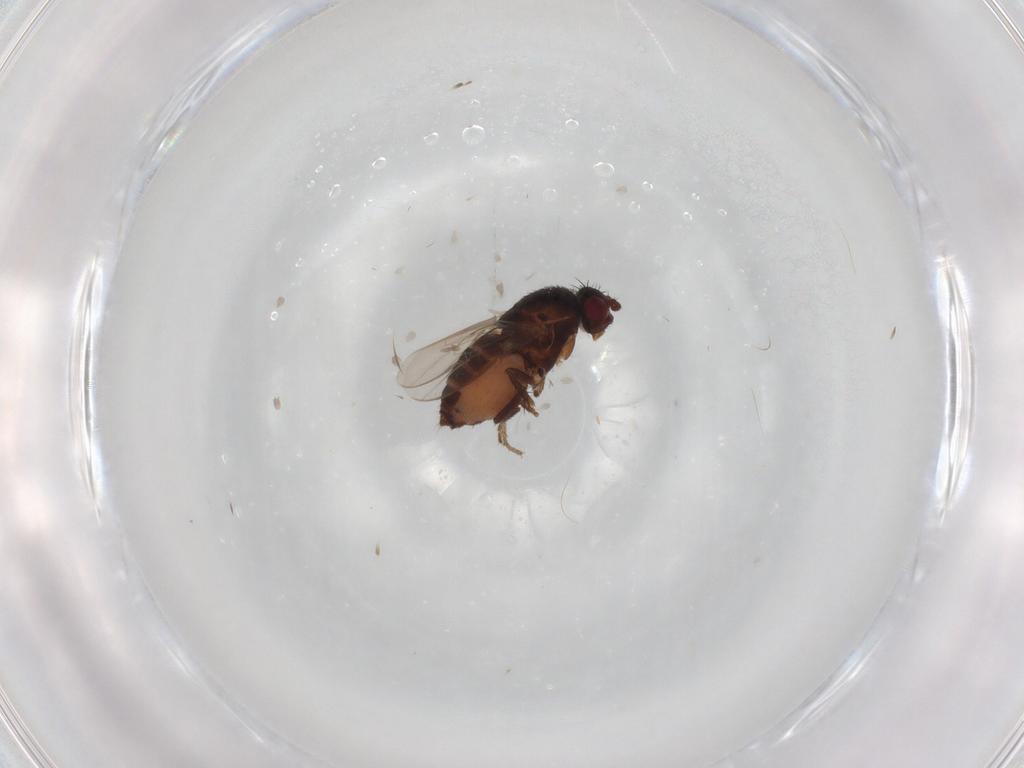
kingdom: Animalia
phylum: Arthropoda
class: Insecta
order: Diptera
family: Sphaeroceridae
